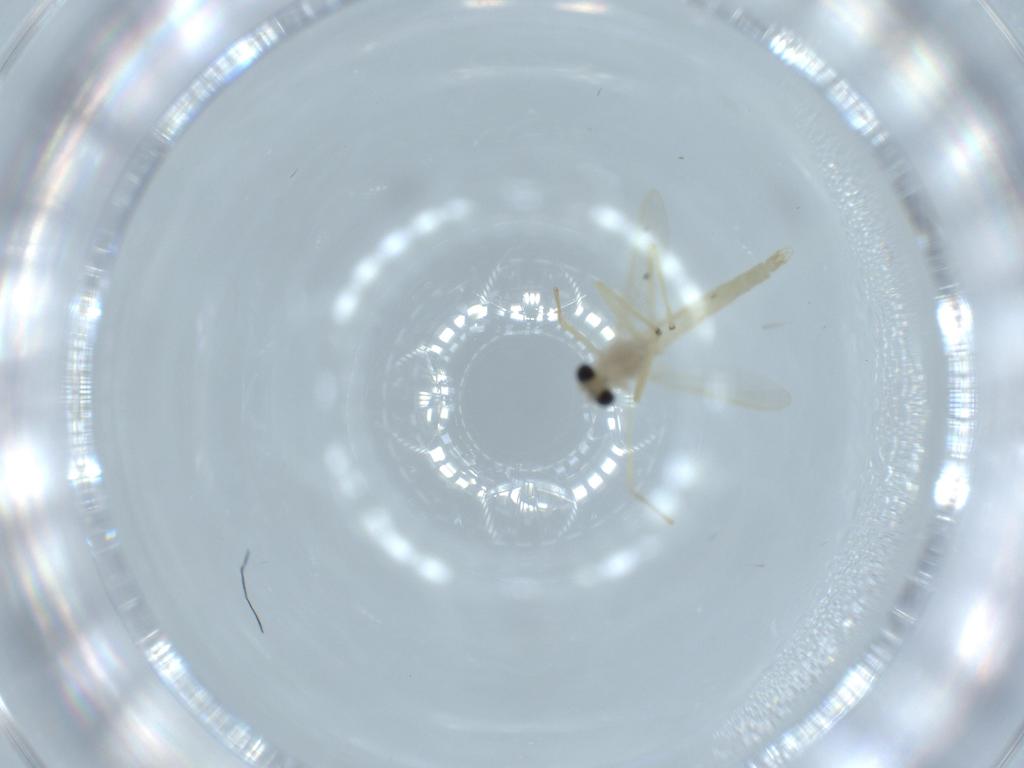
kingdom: Animalia
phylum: Arthropoda
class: Insecta
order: Diptera
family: Chironomidae
